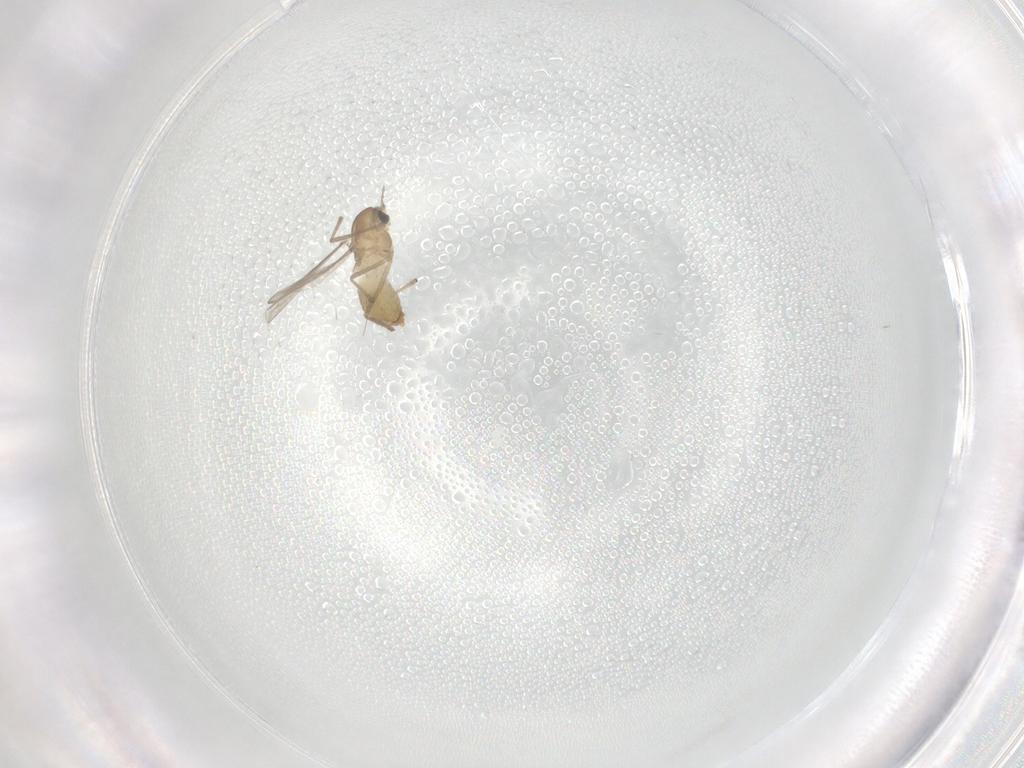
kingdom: Animalia
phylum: Arthropoda
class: Insecta
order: Diptera
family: Chironomidae
